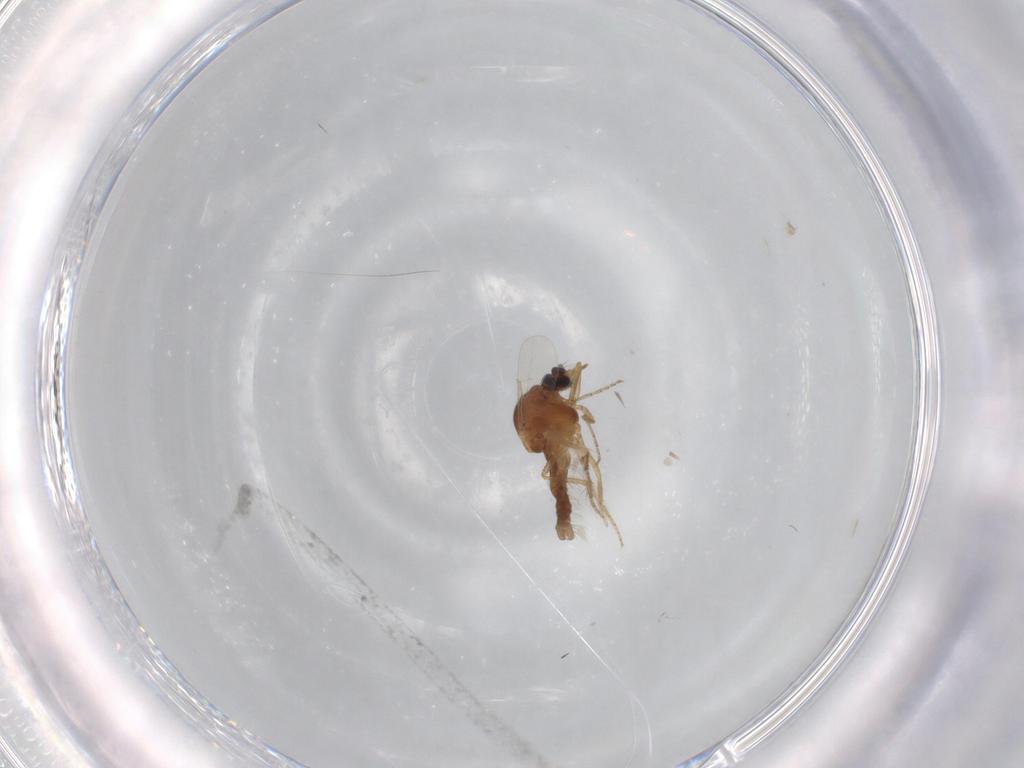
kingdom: Animalia
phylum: Arthropoda
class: Insecta
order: Diptera
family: Ceratopogonidae
